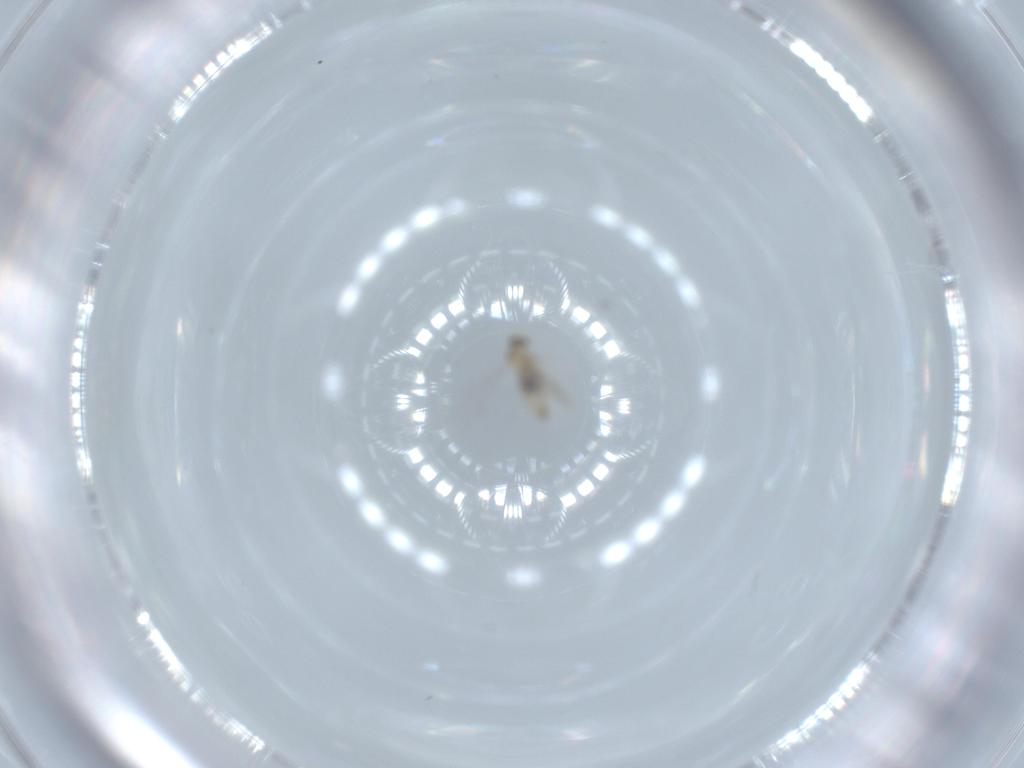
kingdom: Animalia
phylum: Arthropoda
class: Insecta
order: Diptera
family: Cecidomyiidae
